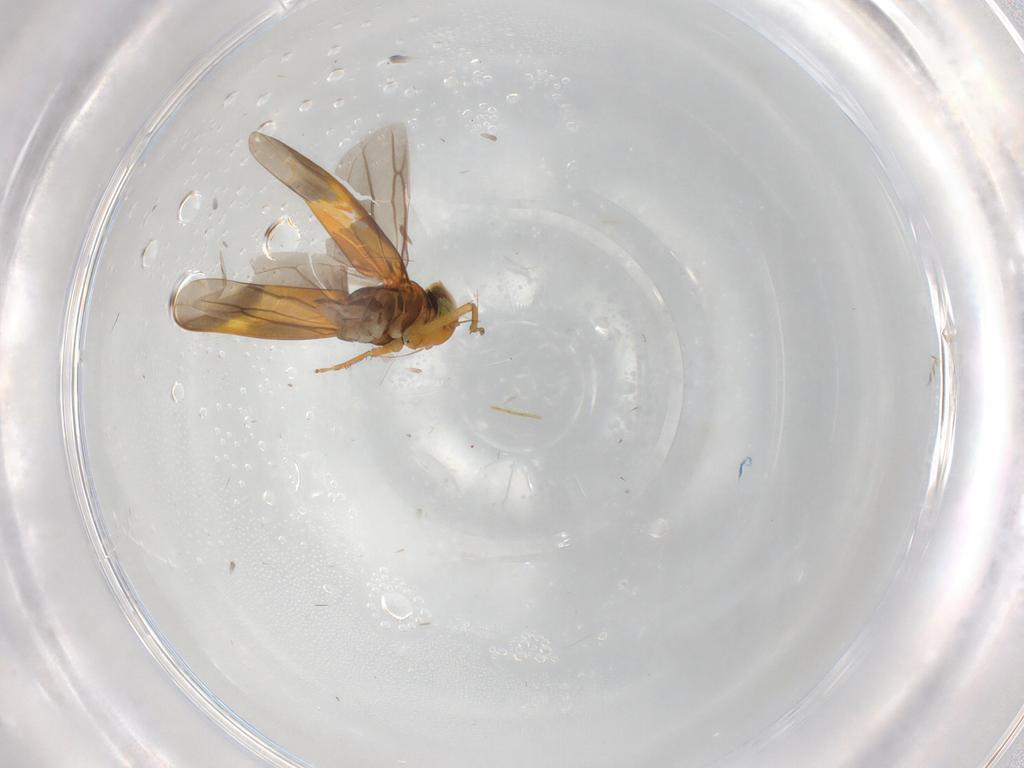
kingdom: Animalia
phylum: Arthropoda
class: Insecta
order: Hemiptera
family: Cicadellidae
